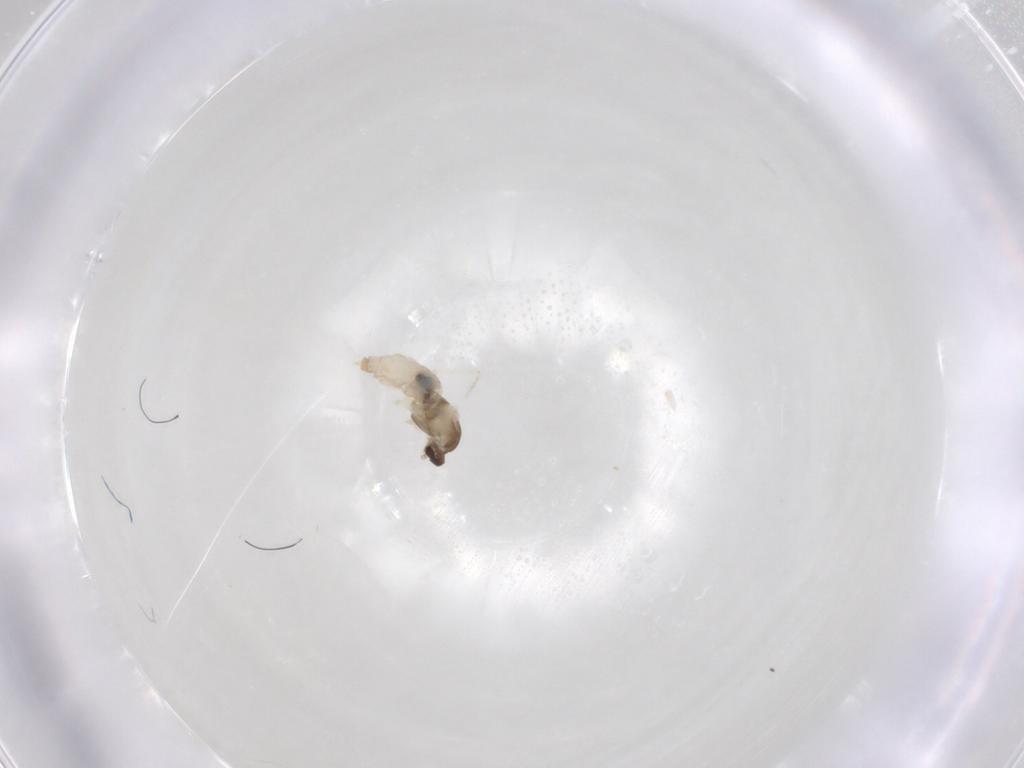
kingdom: Animalia
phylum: Arthropoda
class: Insecta
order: Diptera
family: Cecidomyiidae
